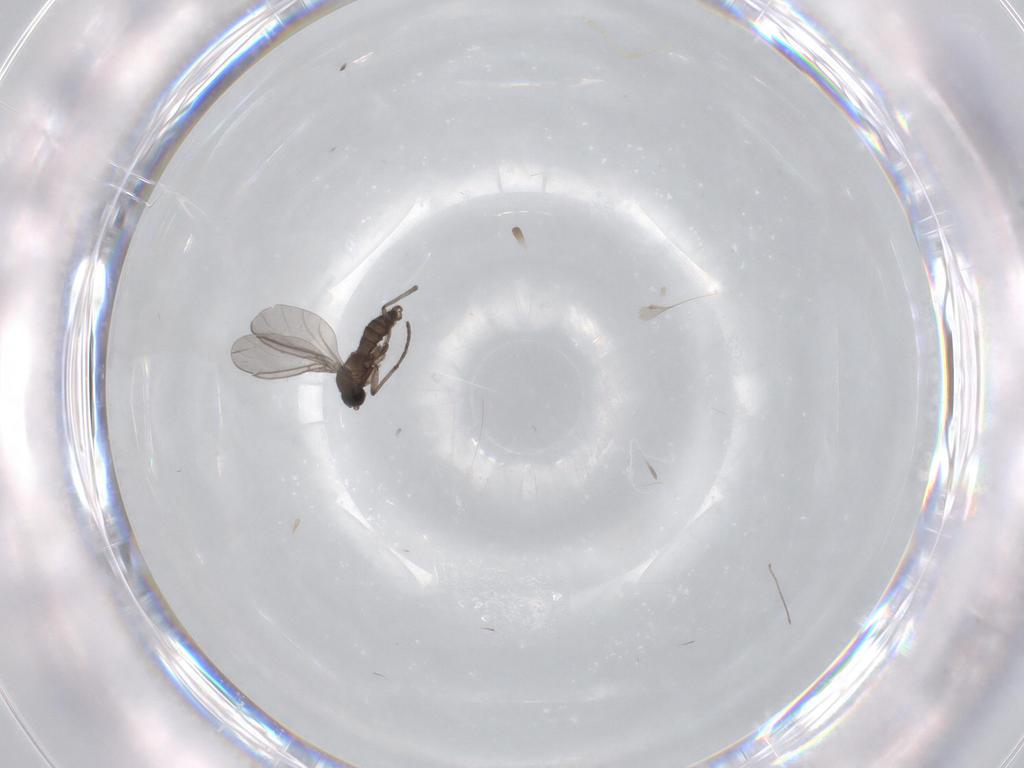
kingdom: Animalia
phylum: Arthropoda
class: Insecta
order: Diptera
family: Sciaridae
